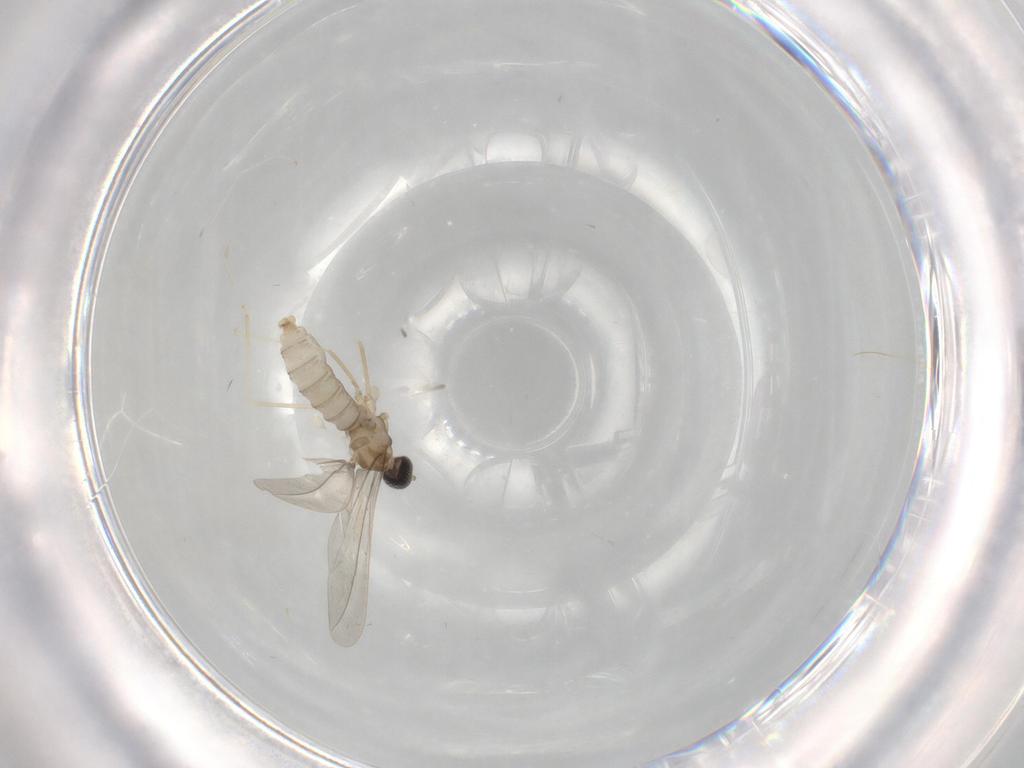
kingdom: Animalia
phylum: Arthropoda
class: Insecta
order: Diptera
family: Cecidomyiidae
